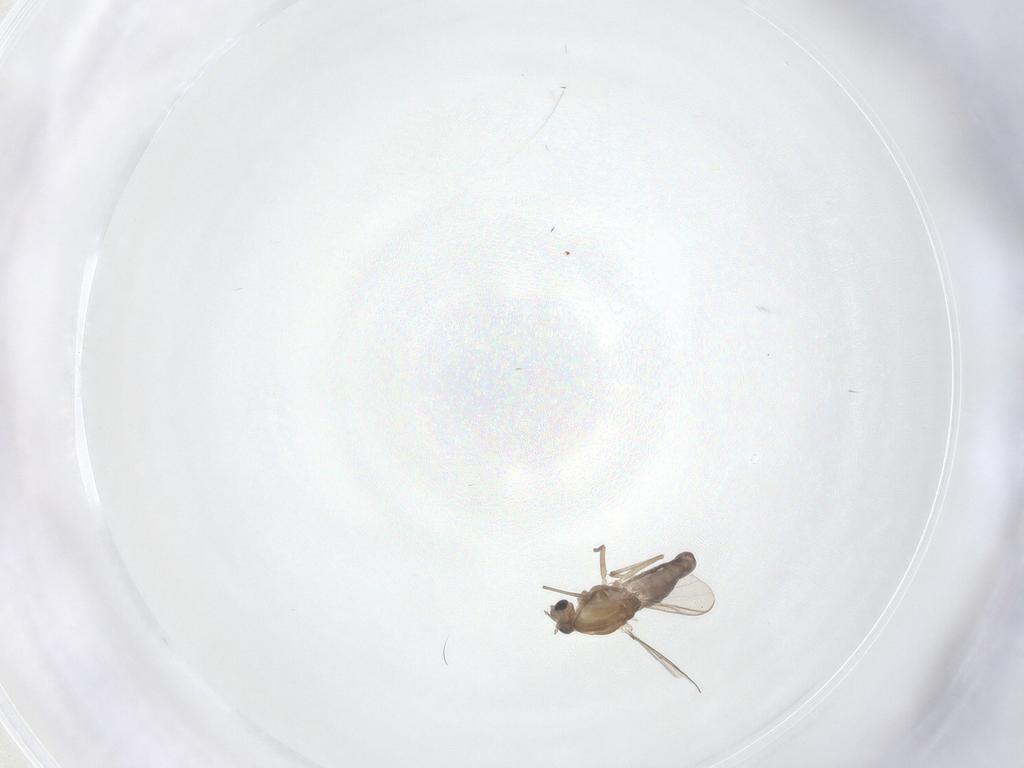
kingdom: Animalia
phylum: Arthropoda
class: Insecta
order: Diptera
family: Chironomidae
